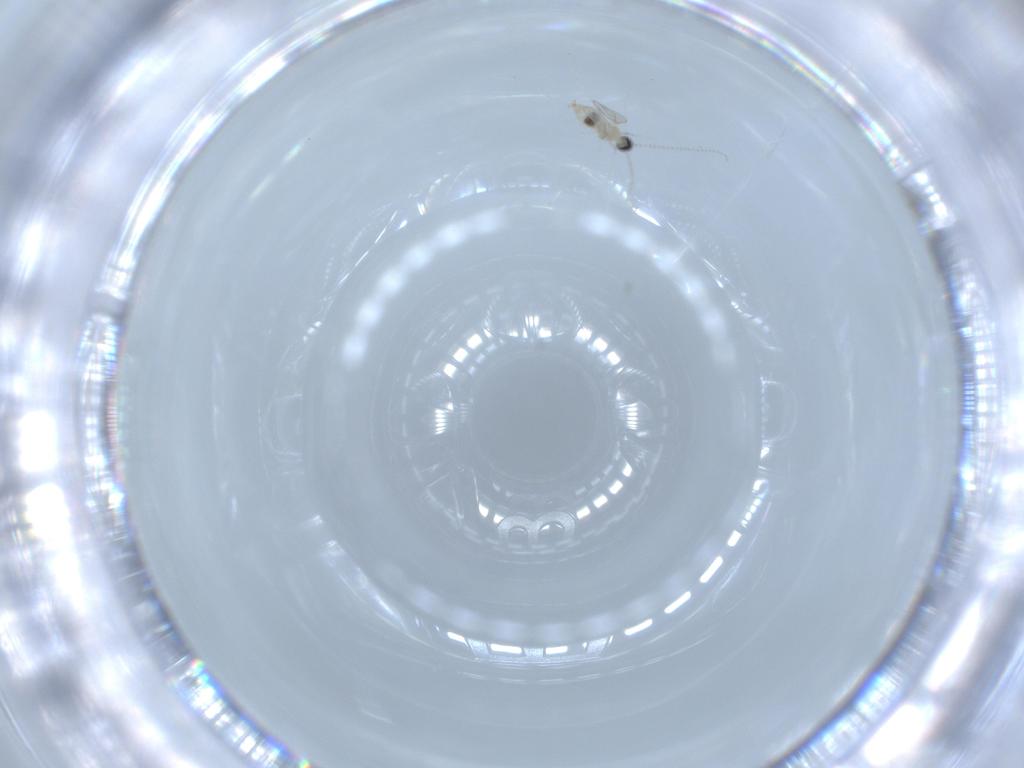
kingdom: Animalia
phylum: Arthropoda
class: Insecta
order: Diptera
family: Cecidomyiidae
